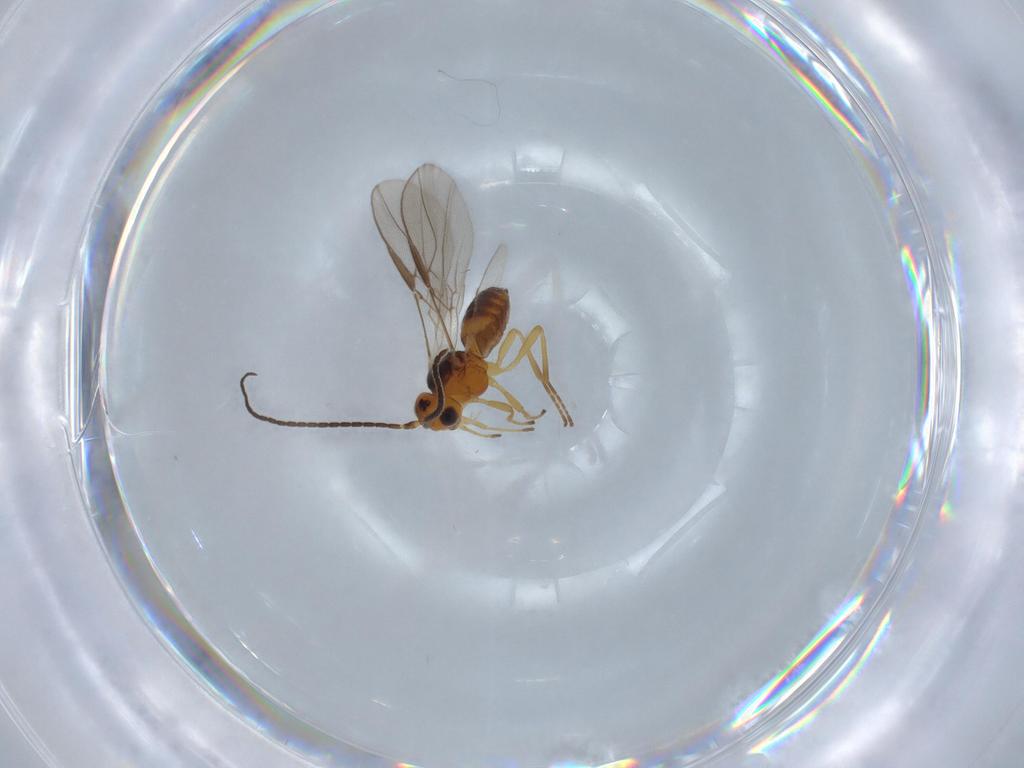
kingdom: Animalia
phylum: Arthropoda
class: Insecta
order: Hymenoptera
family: Braconidae
